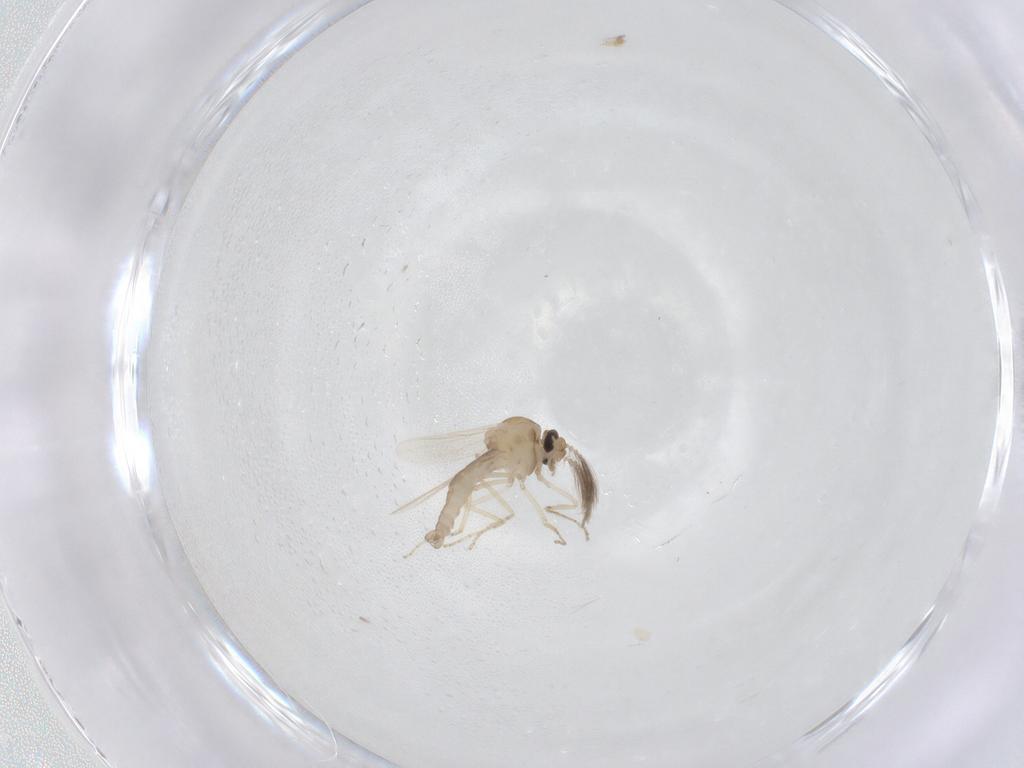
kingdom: Animalia
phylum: Arthropoda
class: Insecta
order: Diptera
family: Ceratopogonidae
